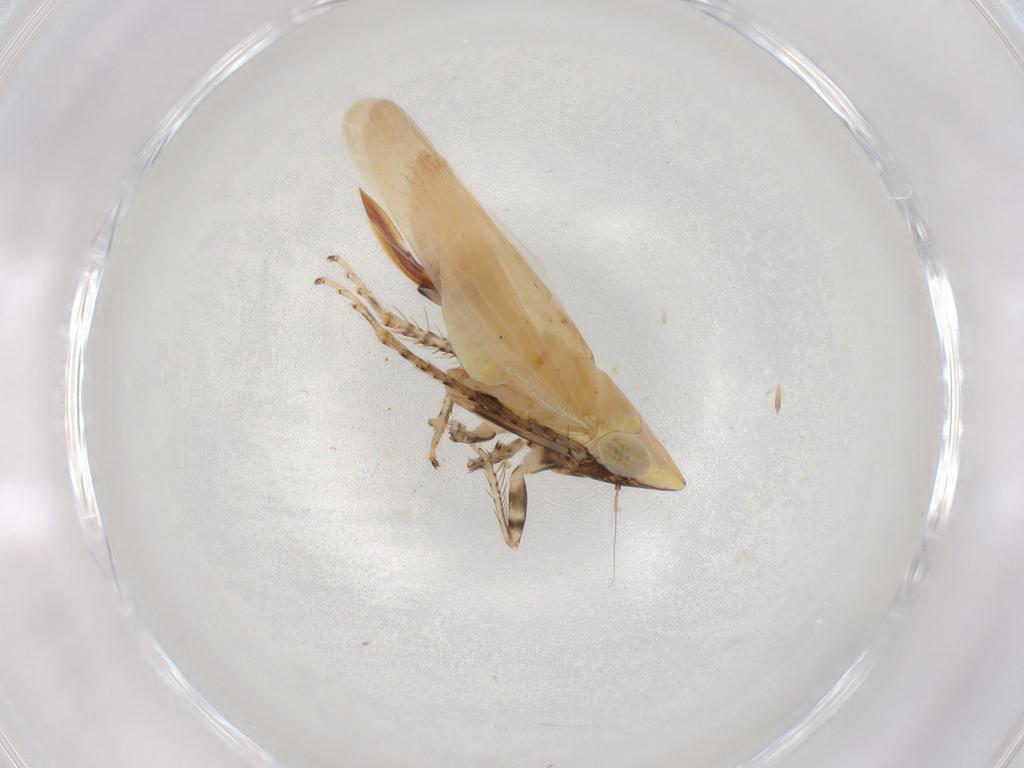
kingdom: Animalia
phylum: Arthropoda
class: Insecta
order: Hemiptera
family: Cicadellidae
